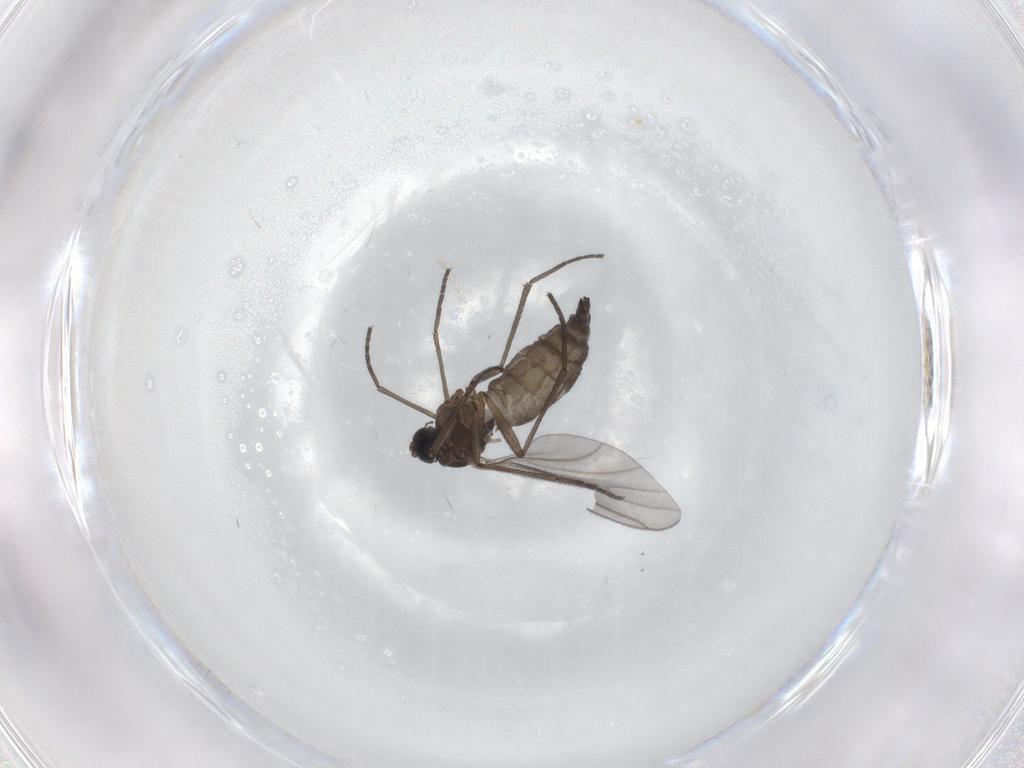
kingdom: Animalia
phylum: Arthropoda
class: Insecta
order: Diptera
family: Sciaridae
